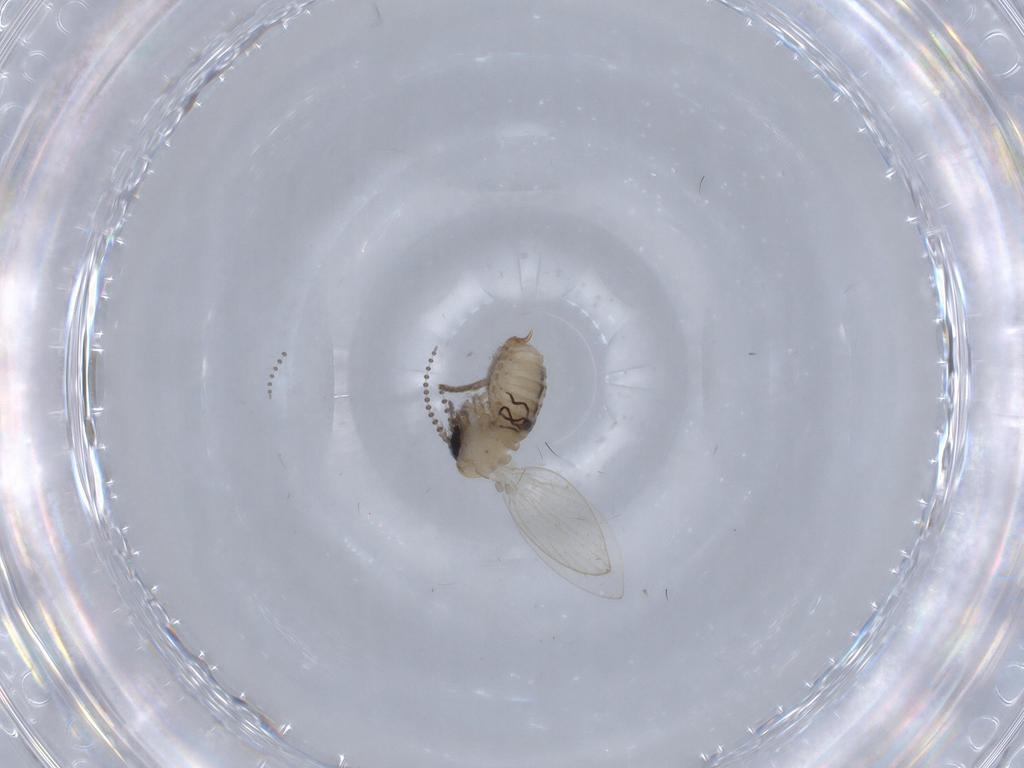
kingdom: Animalia
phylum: Arthropoda
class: Insecta
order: Diptera
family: Psychodidae
